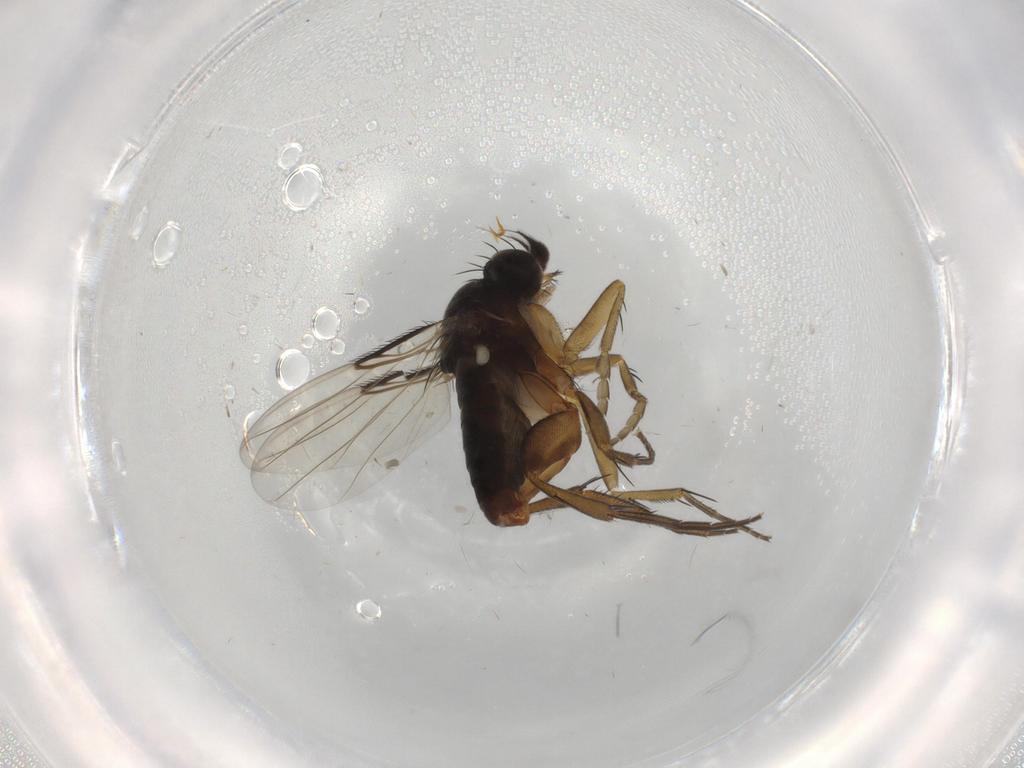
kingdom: Animalia
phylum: Arthropoda
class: Insecta
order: Diptera
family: Phoridae
